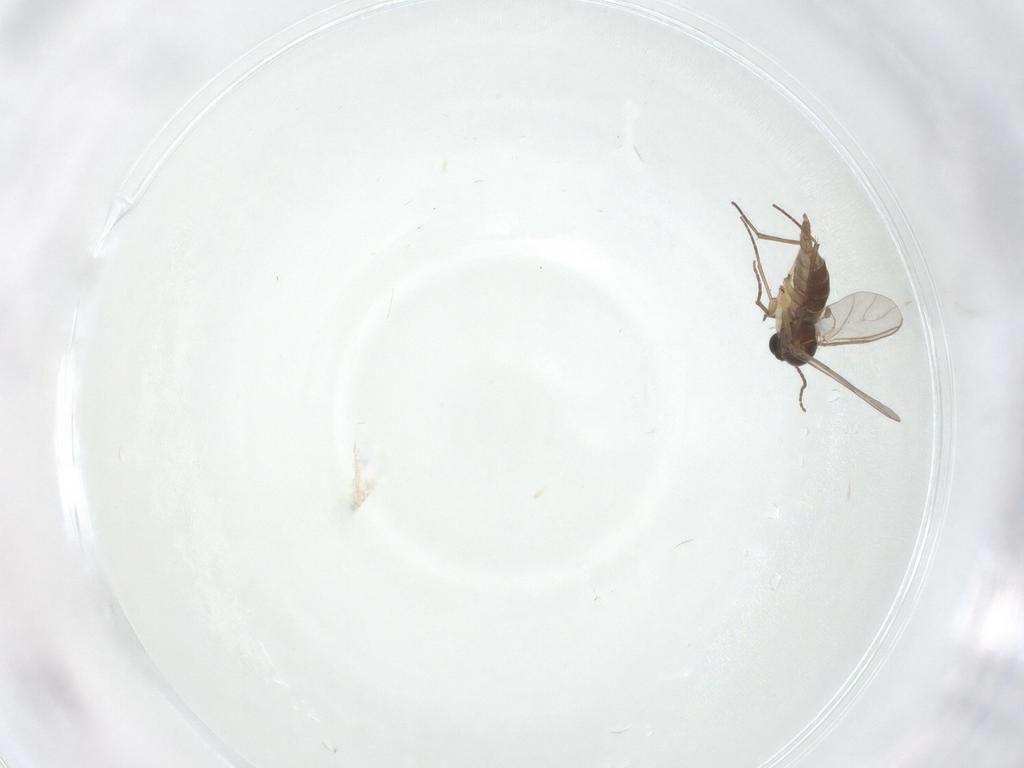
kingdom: Animalia
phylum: Arthropoda
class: Insecta
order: Diptera
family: Sciaridae
